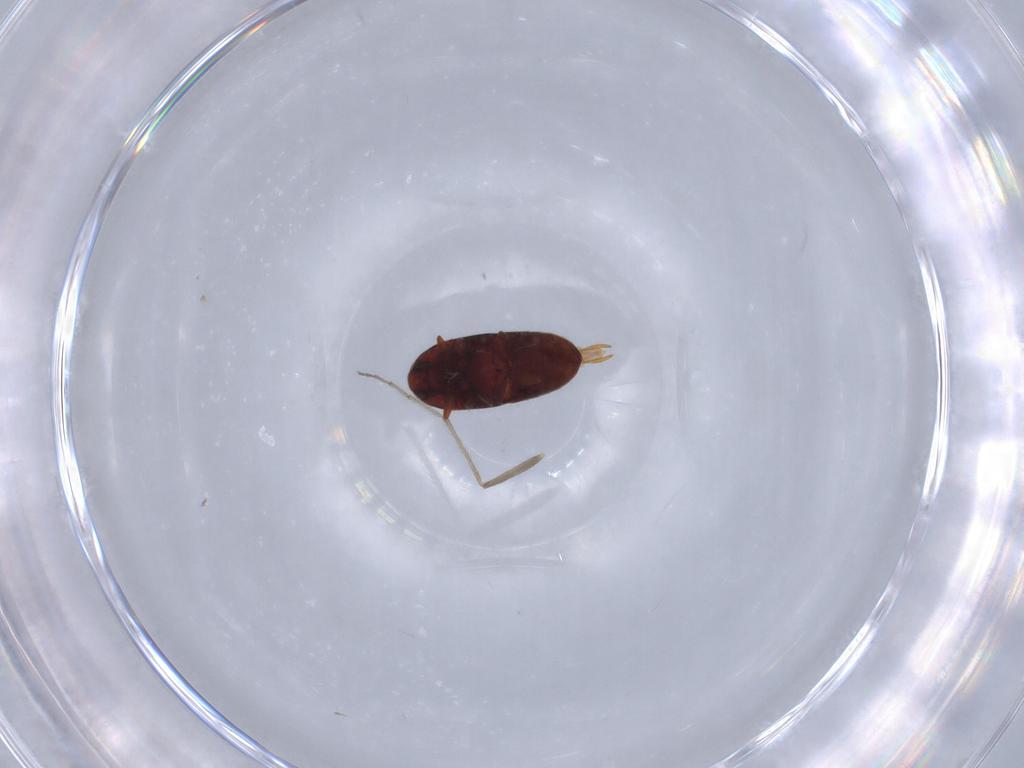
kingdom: Animalia
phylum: Arthropoda
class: Insecta
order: Coleoptera
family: Throscidae
